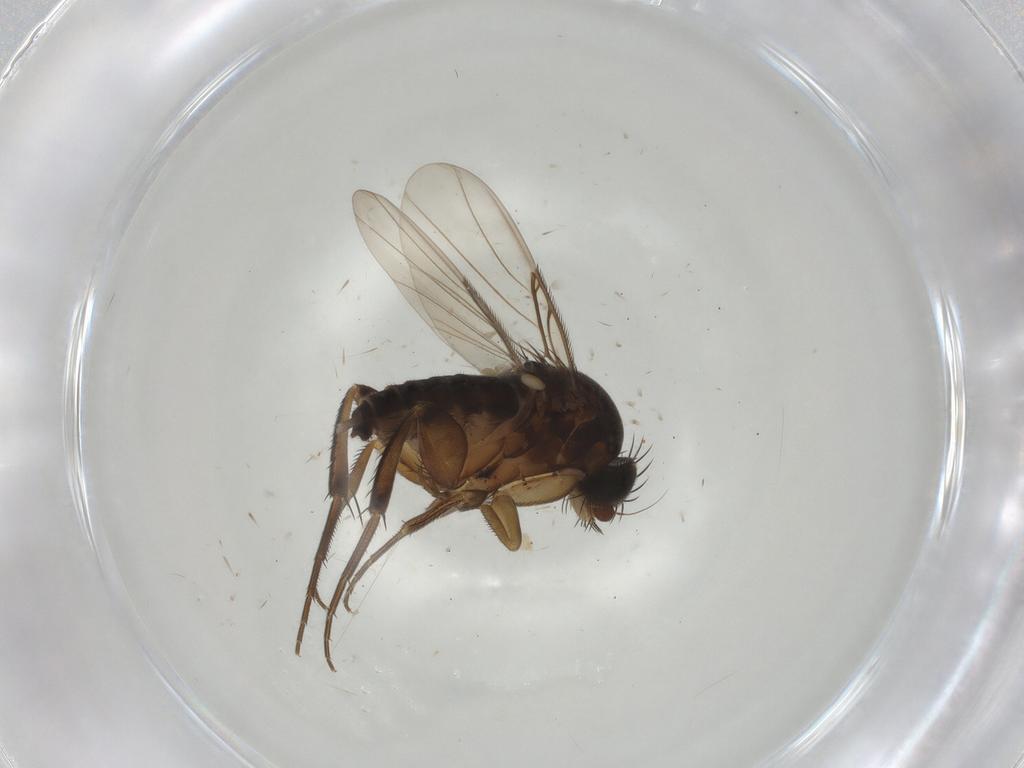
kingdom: Animalia
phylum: Arthropoda
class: Insecta
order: Diptera
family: Phoridae
